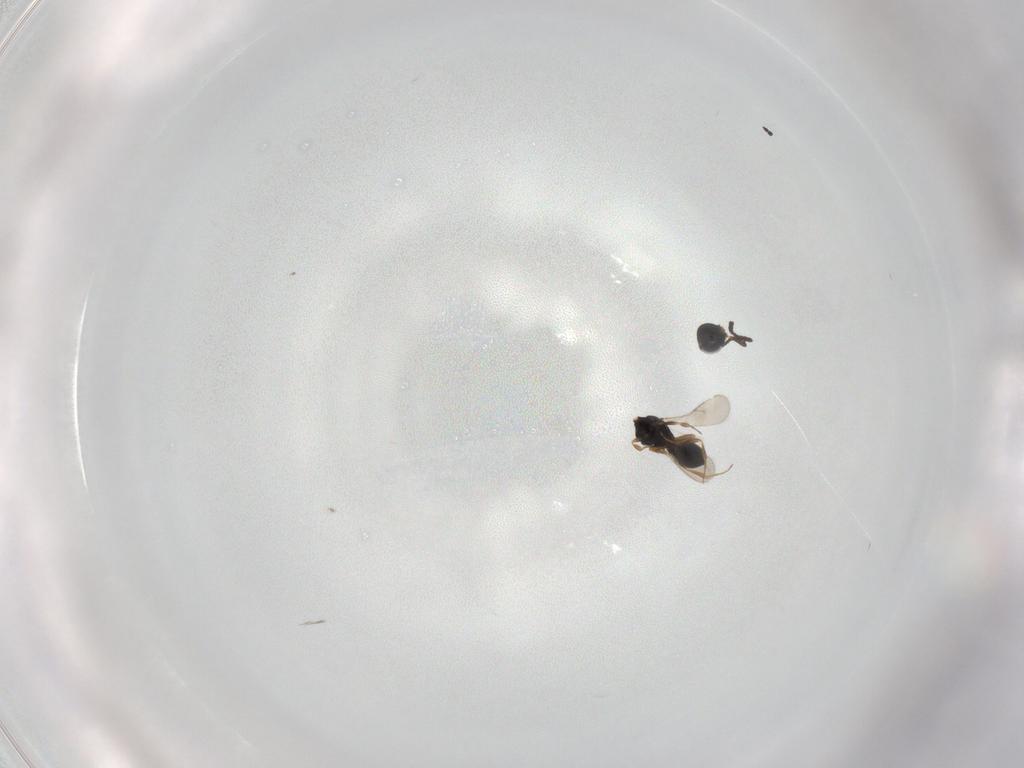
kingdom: Animalia
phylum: Arthropoda
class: Insecta
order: Hymenoptera
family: Scelionidae
